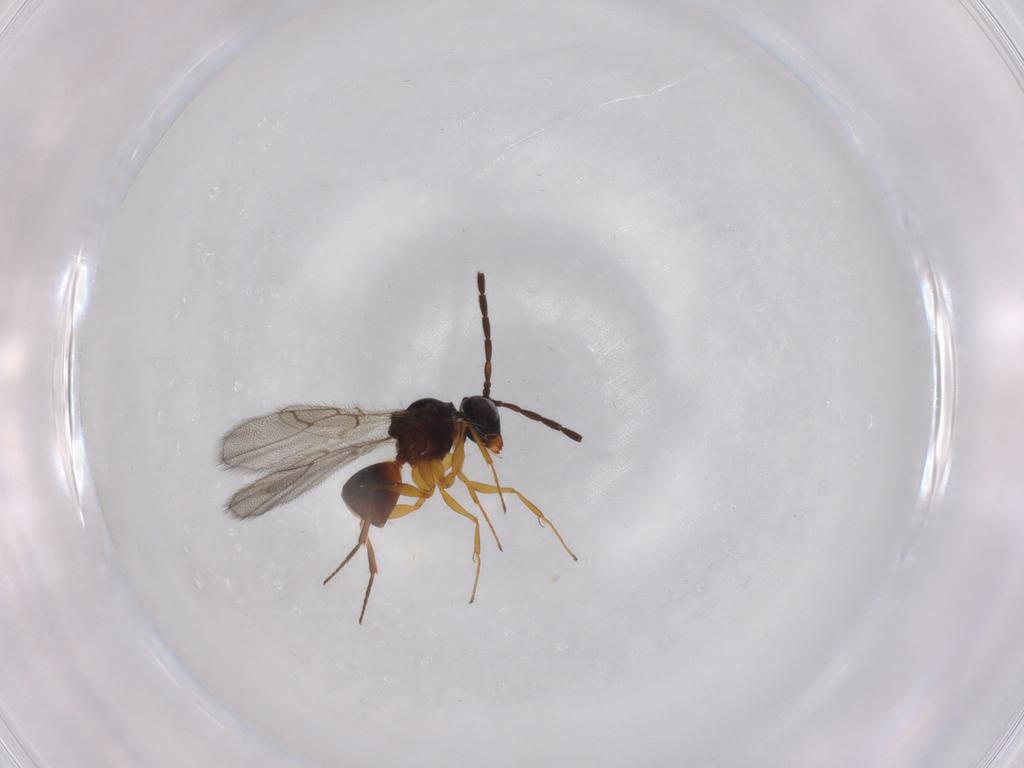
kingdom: Animalia
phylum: Arthropoda
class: Insecta
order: Hymenoptera
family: Figitidae
